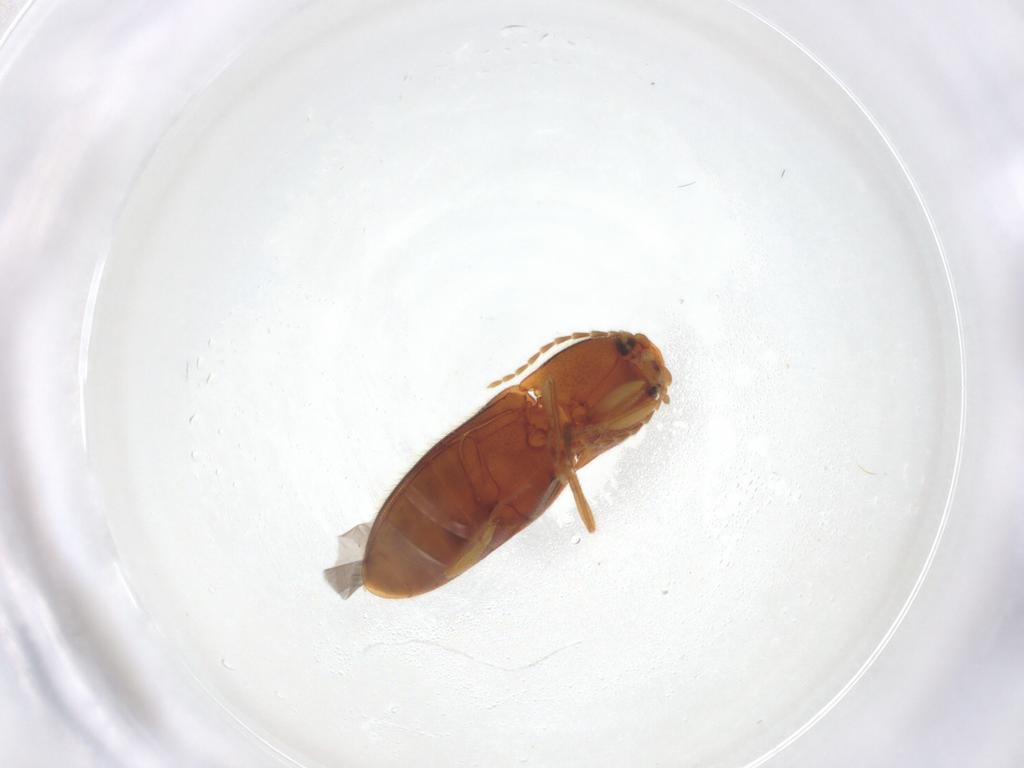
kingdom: Animalia
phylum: Arthropoda
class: Insecta
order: Coleoptera
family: Elateridae
